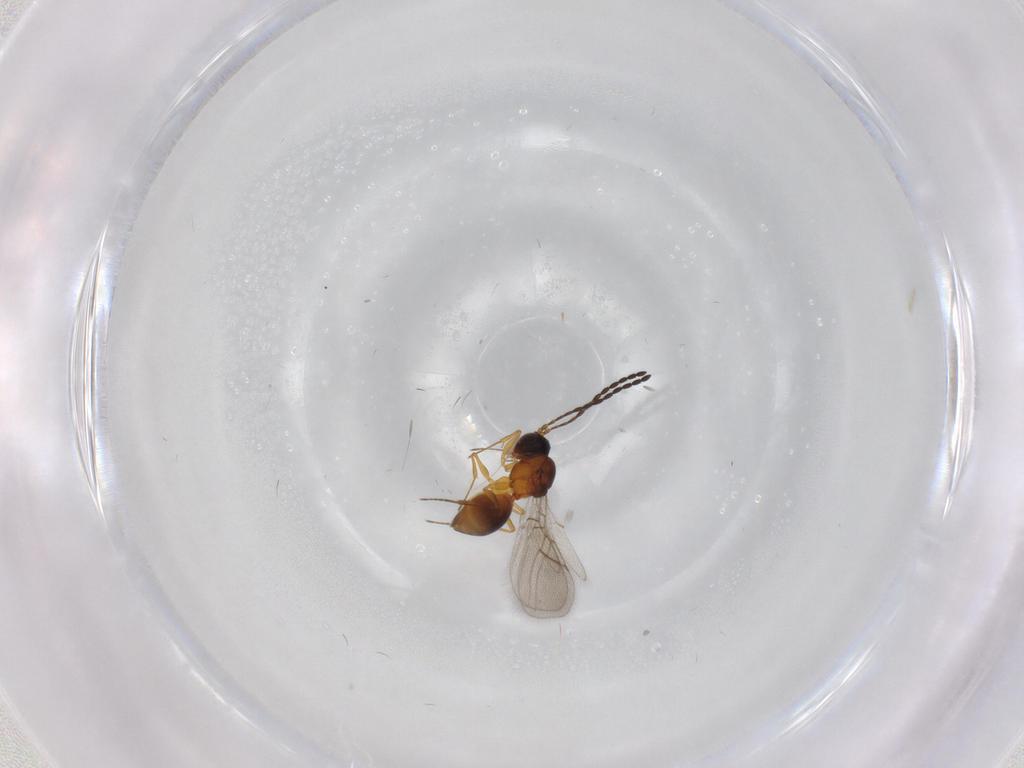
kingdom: Animalia
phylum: Arthropoda
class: Insecta
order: Hymenoptera
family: Figitidae
